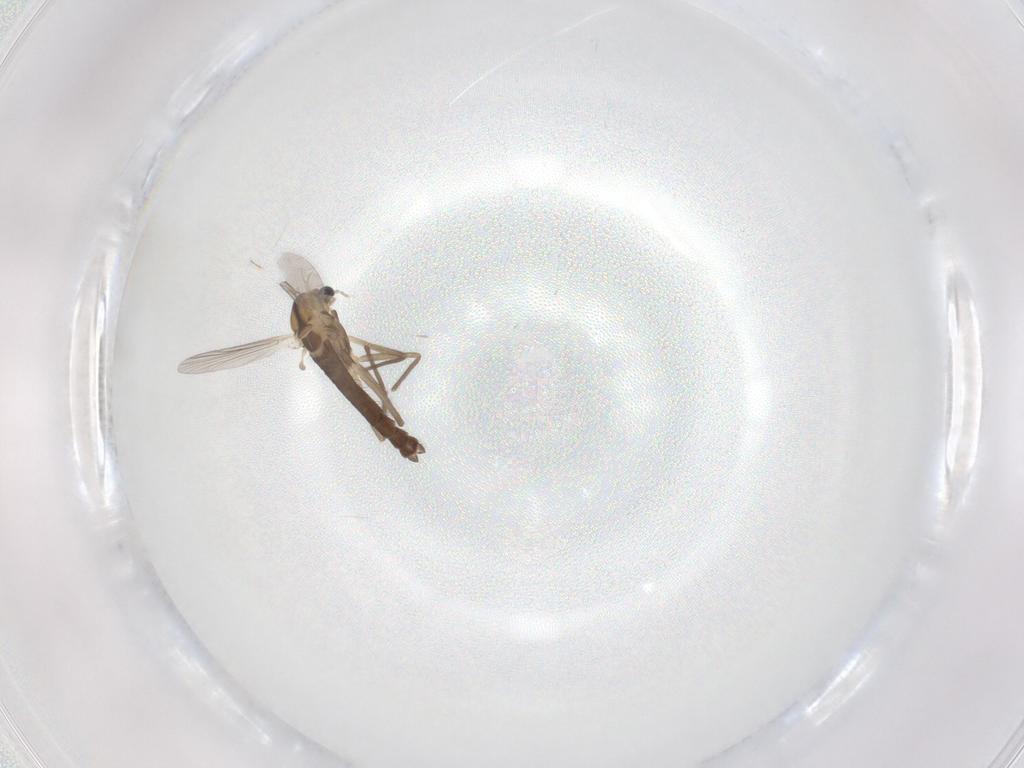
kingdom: Animalia
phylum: Arthropoda
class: Insecta
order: Diptera
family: Chironomidae
